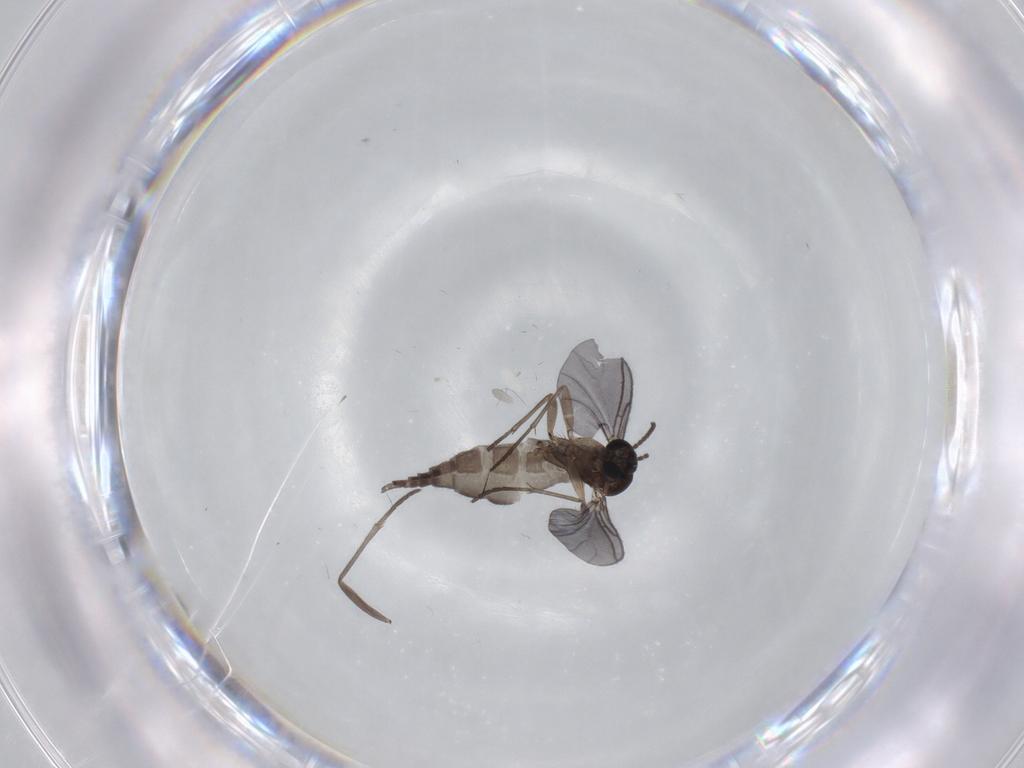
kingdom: Animalia
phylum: Arthropoda
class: Insecta
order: Diptera
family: Sciaridae
